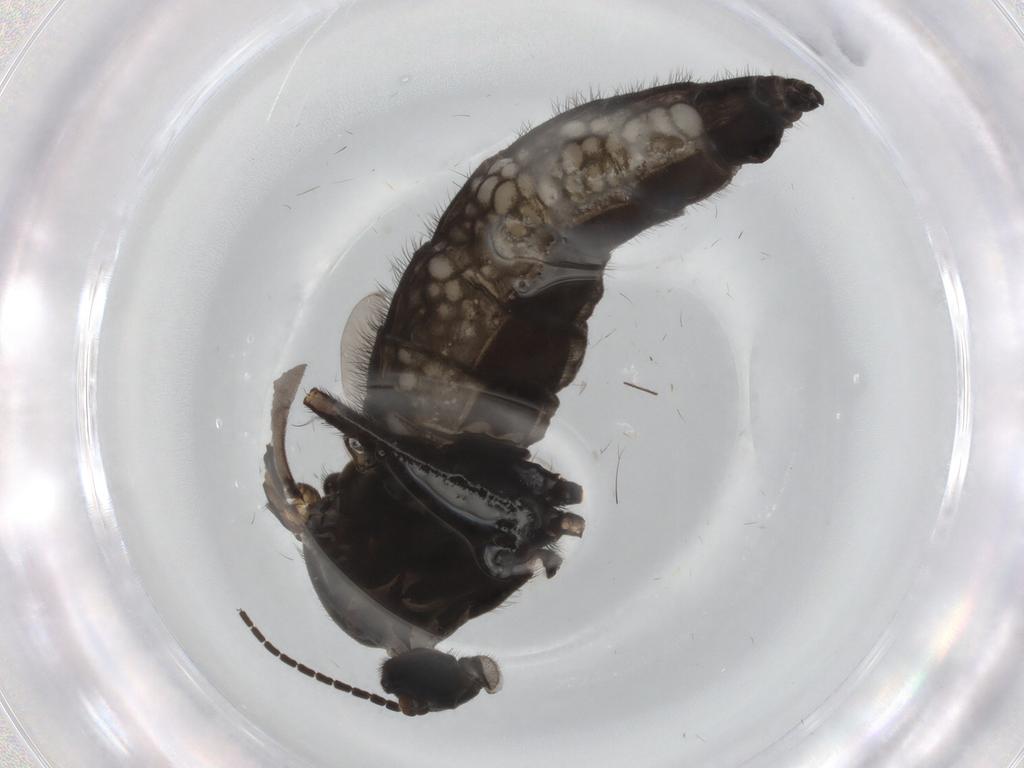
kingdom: Animalia
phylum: Arthropoda
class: Insecta
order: Diptera
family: Sciaridae
